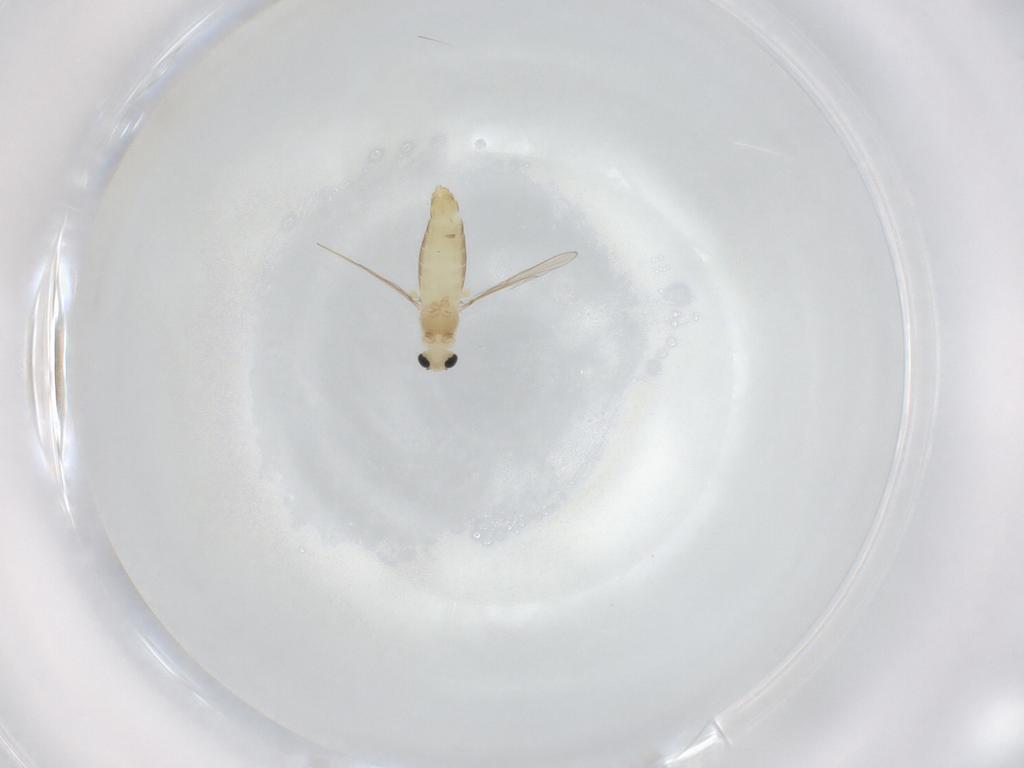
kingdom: Animalia
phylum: Arthropoda
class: Insecta
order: Diptera
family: Chironomidae
